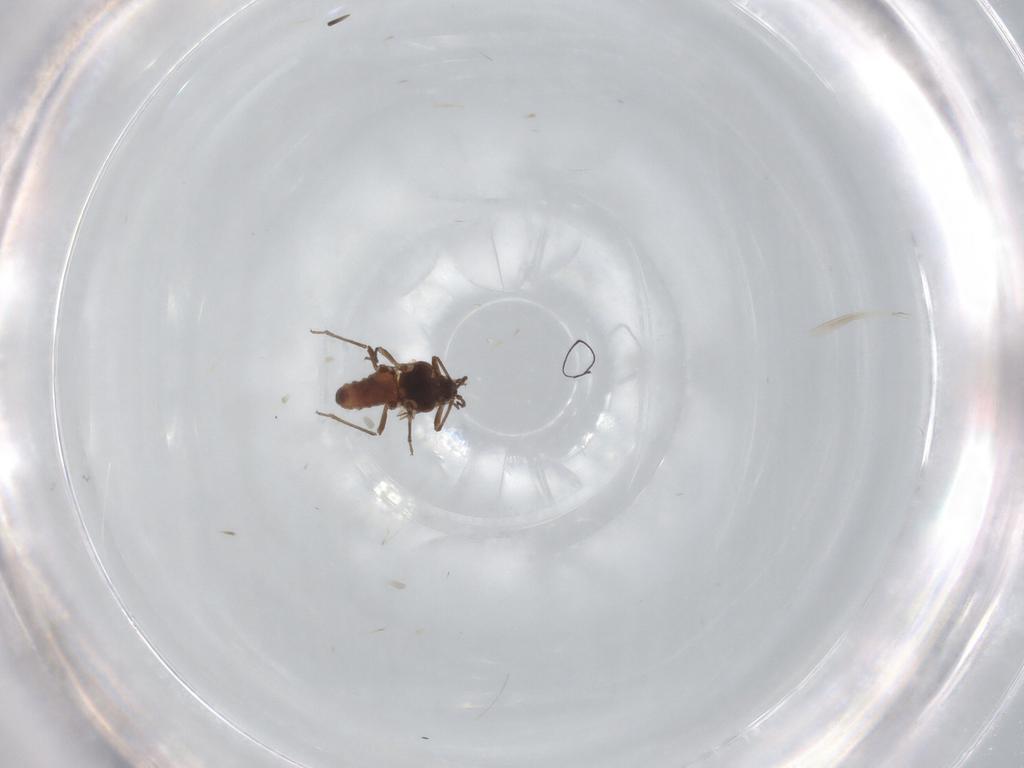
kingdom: Animalia
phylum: Arthropoda
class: Insecta
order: Hemiptera
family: Aphididae
